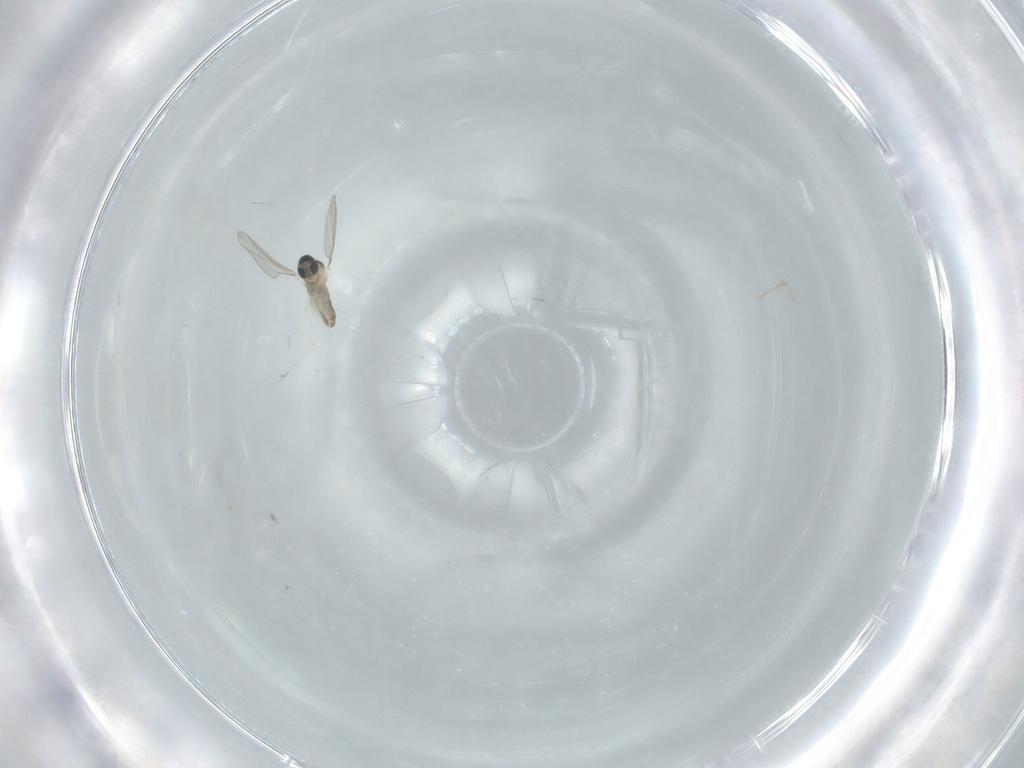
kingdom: Animalia
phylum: Arthropoda
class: Insecta
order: Diptera
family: Cecidomyiidae
